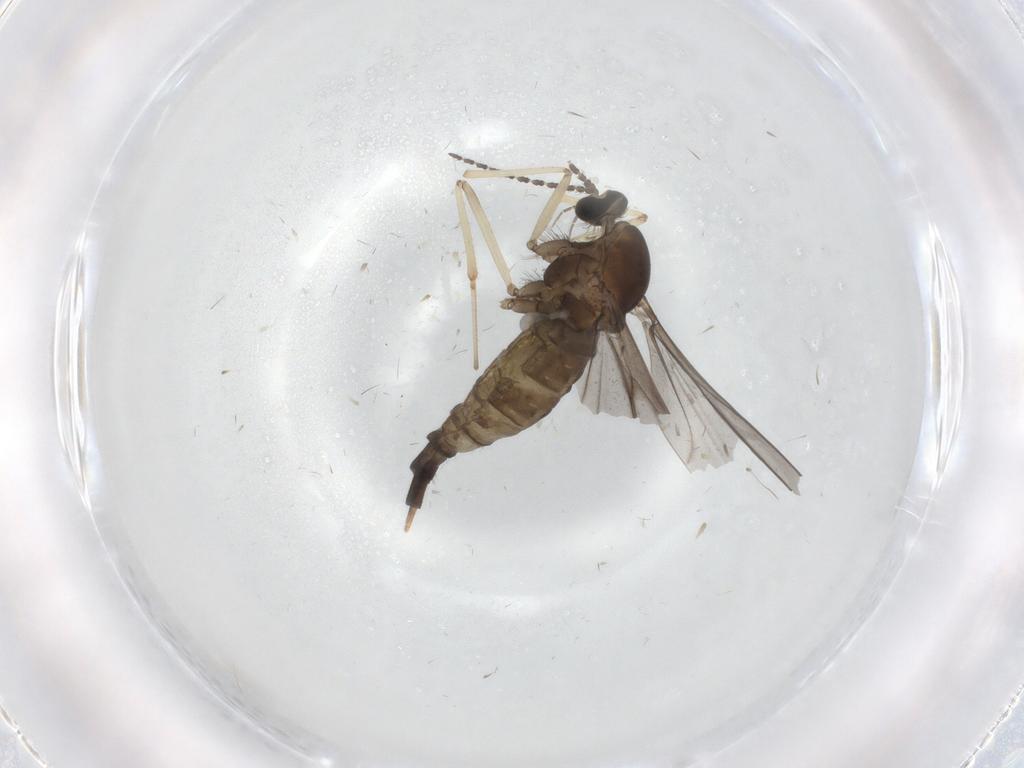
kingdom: Animalia
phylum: Arthropoda
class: Insecta
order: Diptera
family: Cecidomyiidae
